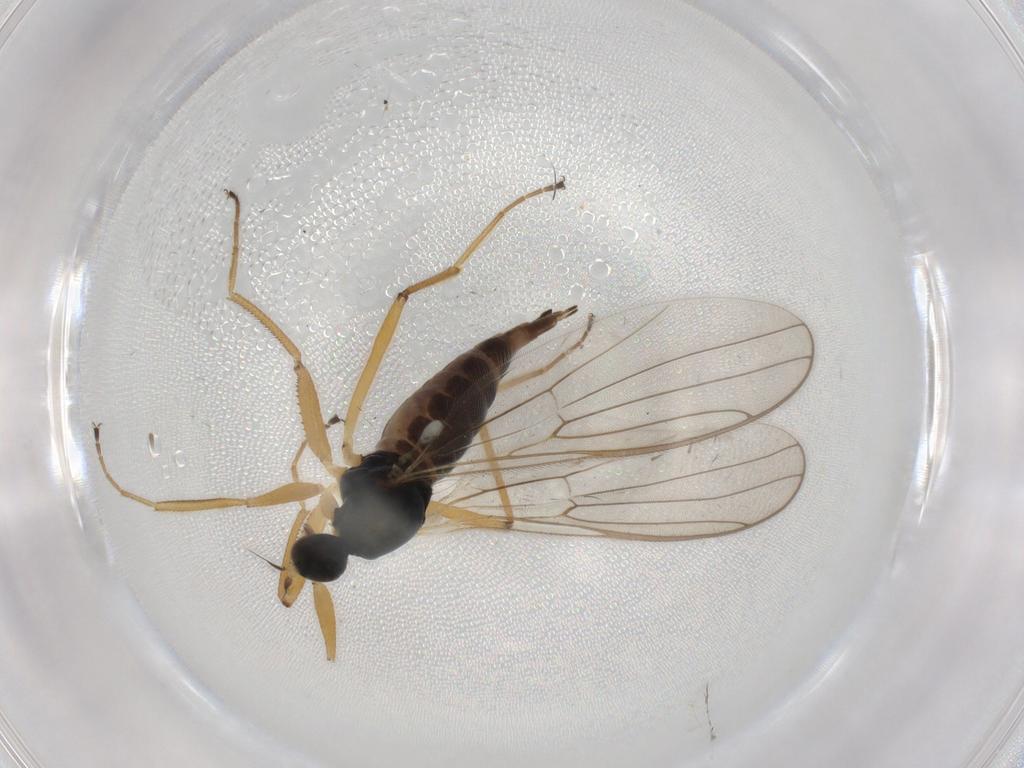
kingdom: Animalia
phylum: Arthropoda
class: Insecta
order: Diptera
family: Hybotidae
